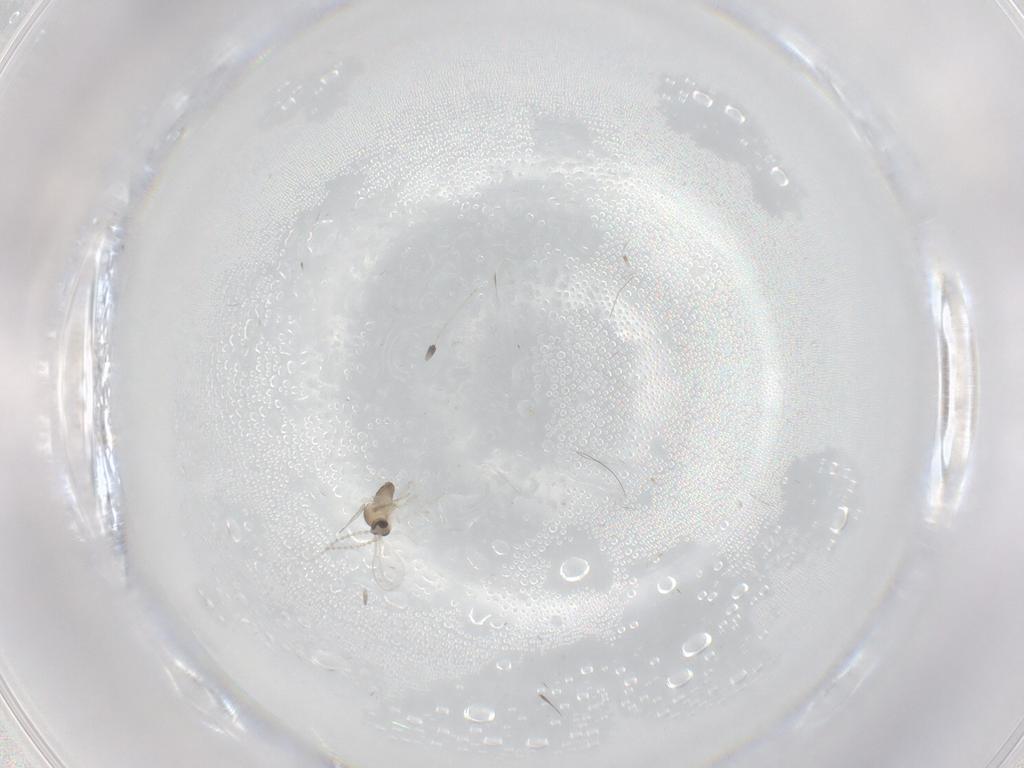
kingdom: Animalia
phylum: Arthropoda
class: Insecta
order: Diptera
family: Cecidomyiidae
